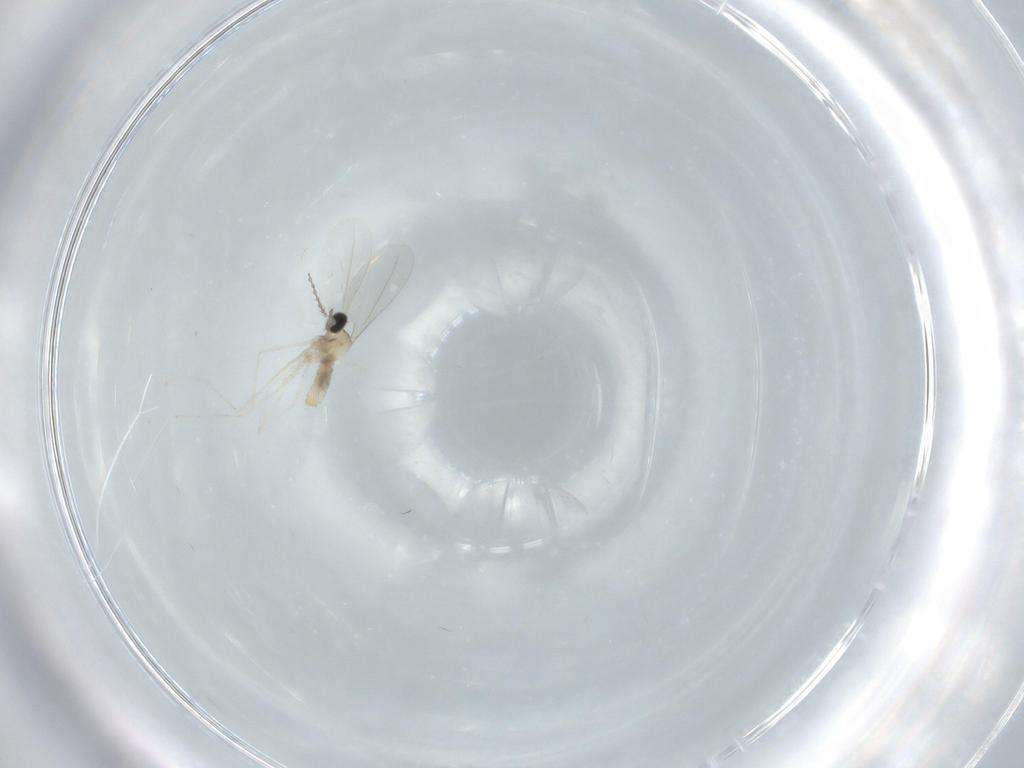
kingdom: Animalia
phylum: Arthropoda
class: Insecta
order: Diptera
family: Cecidomyiidae
